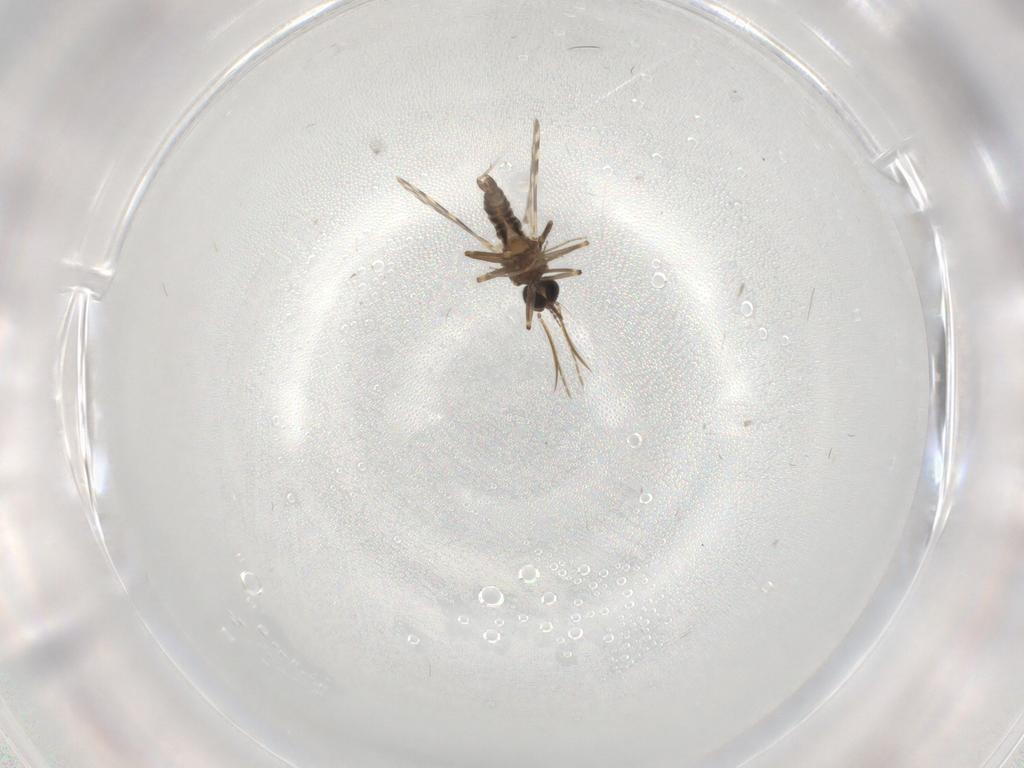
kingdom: Animalia
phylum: Arthropoda
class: Insecta
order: Diptera
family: Ceratopogonidae
